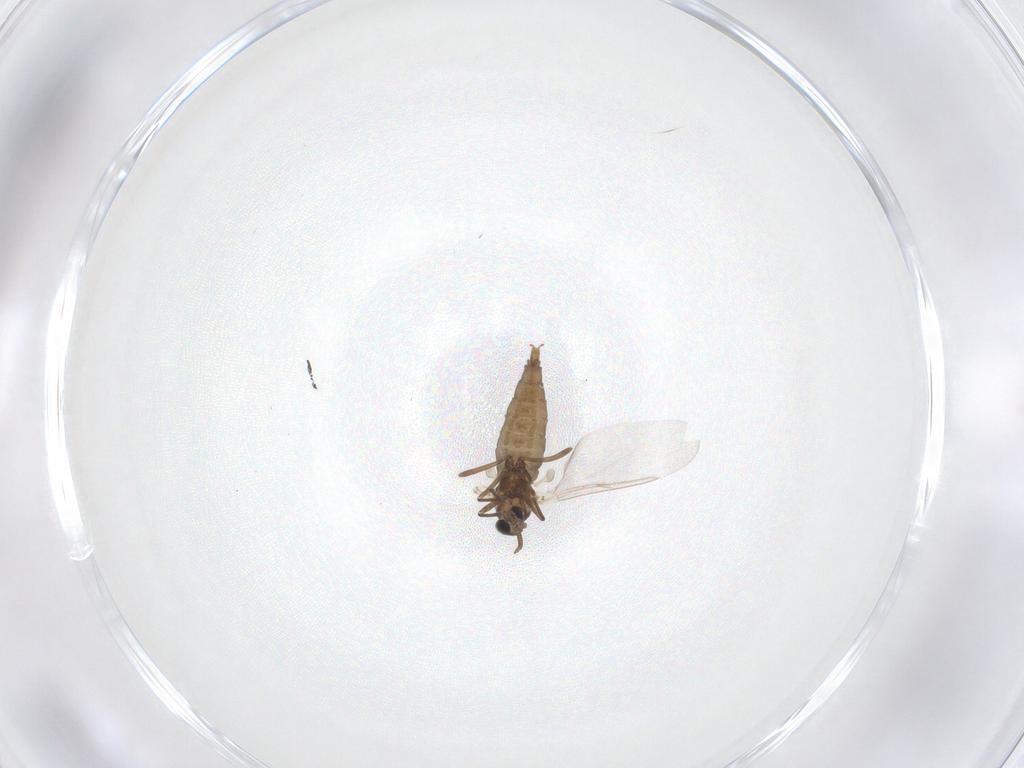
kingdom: Animalia
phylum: Arthropoda
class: Insecta
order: Diptera
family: Cecidomyiidae
